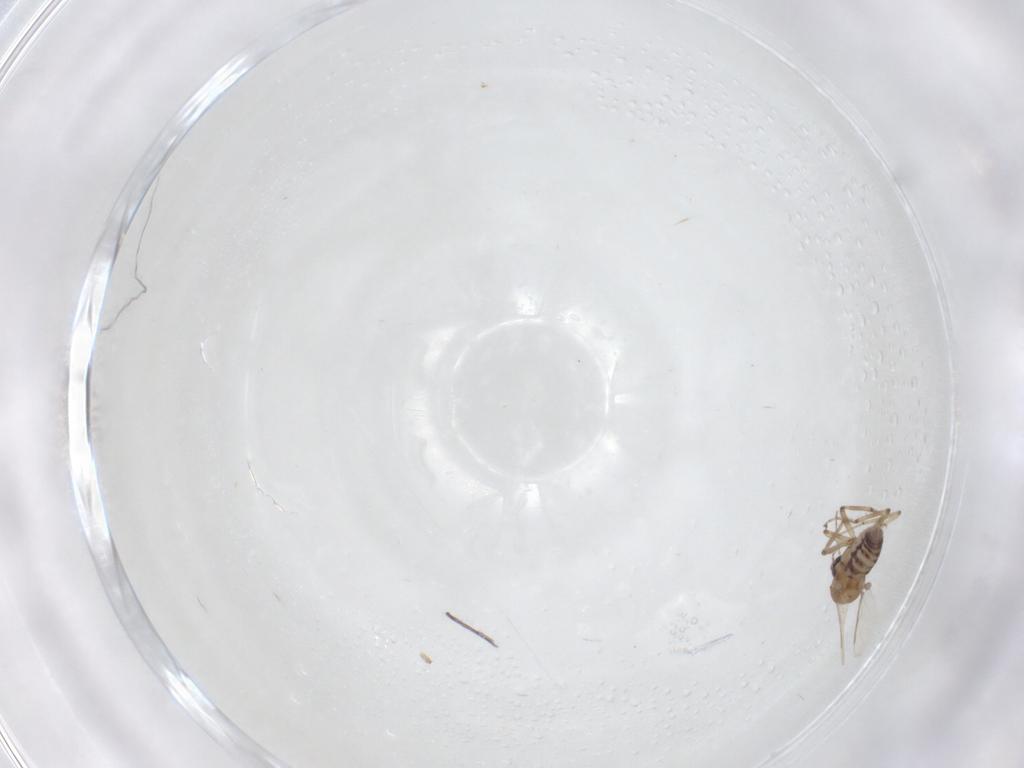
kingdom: Animalia
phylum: Arthropoda
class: Insecta
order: Diptera
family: Ceratopogonidae
